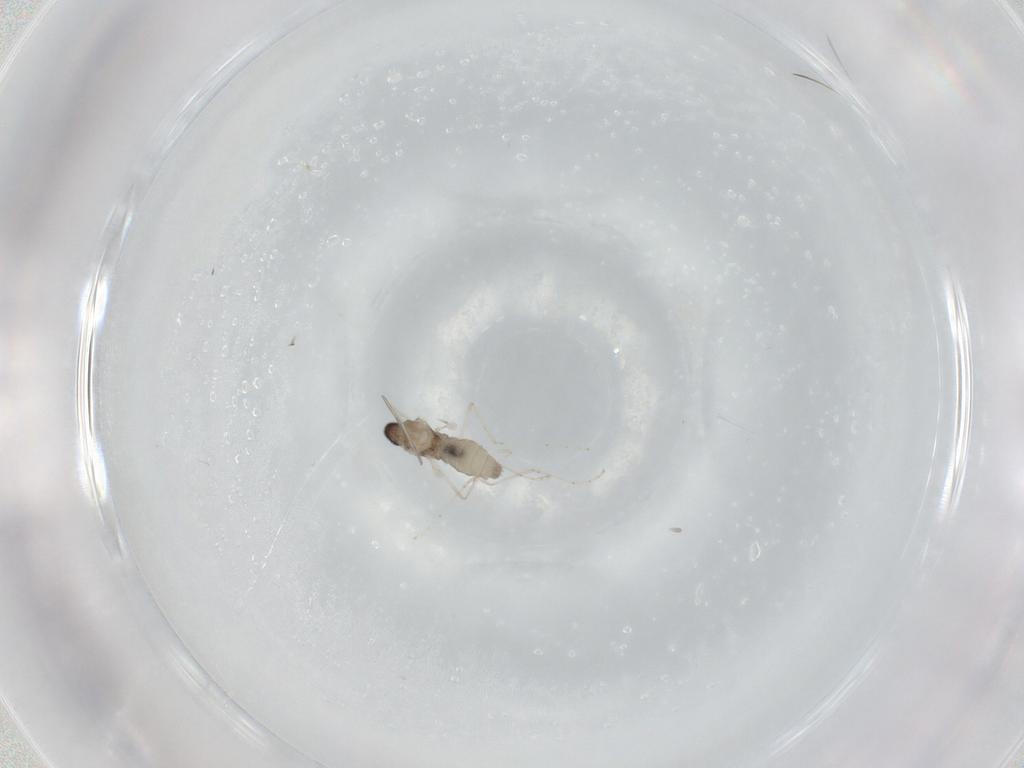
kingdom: Animalia
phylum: Arthropoda
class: Insecta
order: Diptera
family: Cecidomyiidae
